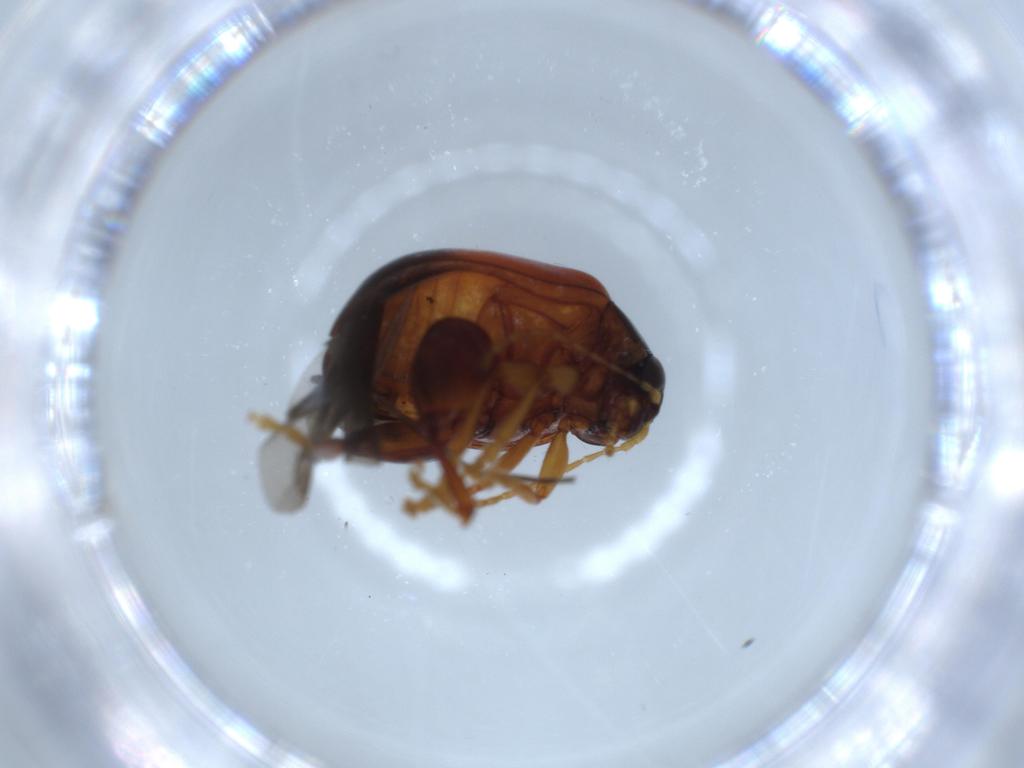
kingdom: Animalia
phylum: Arthropoda
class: Insecta
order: Coleoptera
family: Chrysomelidae
